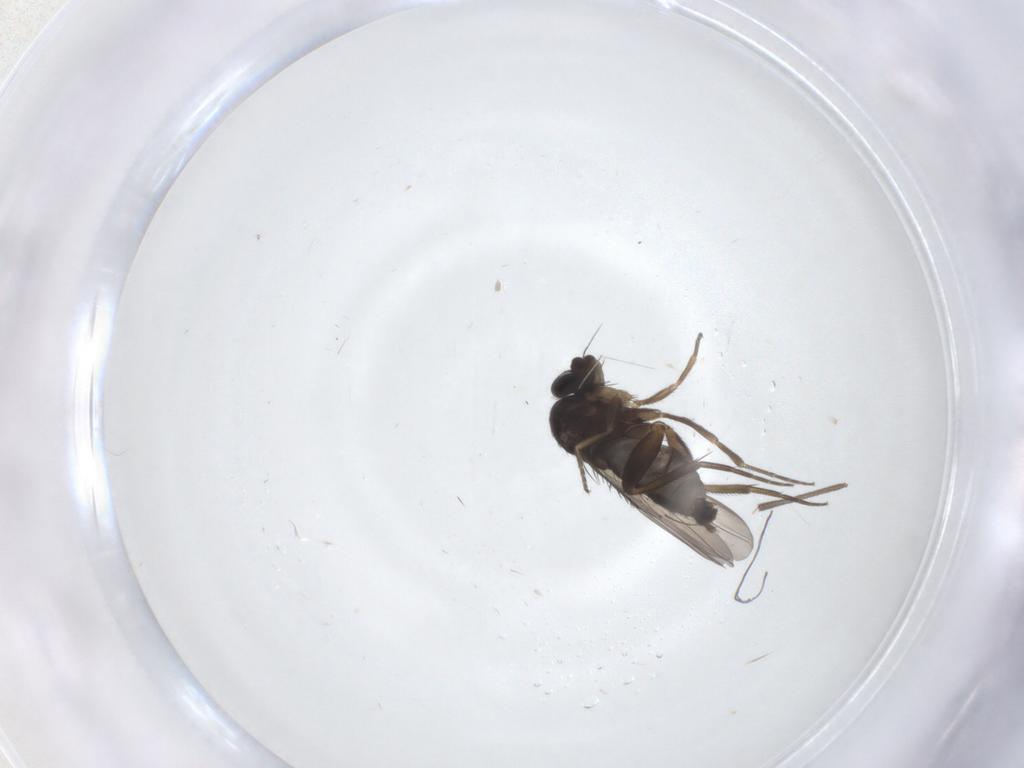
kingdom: Animalia
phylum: Arthropoda
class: Insecta
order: Diptera
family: Phoridae
